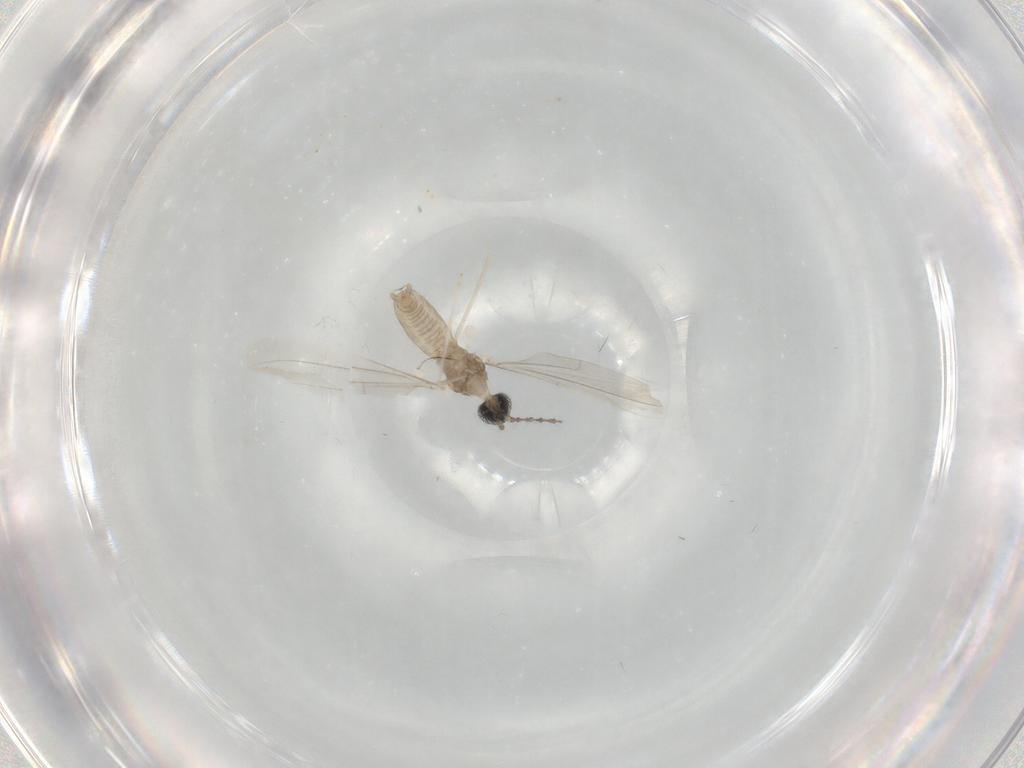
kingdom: Animalia
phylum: Arthropoda
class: Insecta
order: Diptera
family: Cecidomyiidae
